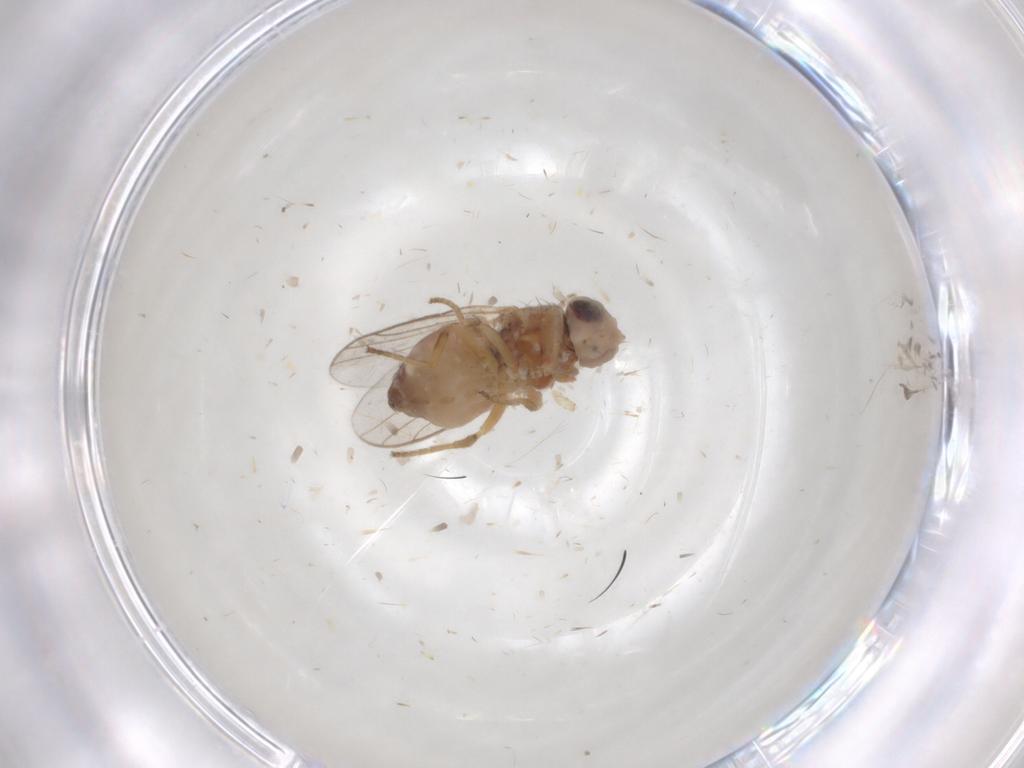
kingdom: Animalia
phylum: Arthropoda
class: Insecta
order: Diptera
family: Chloropidae
